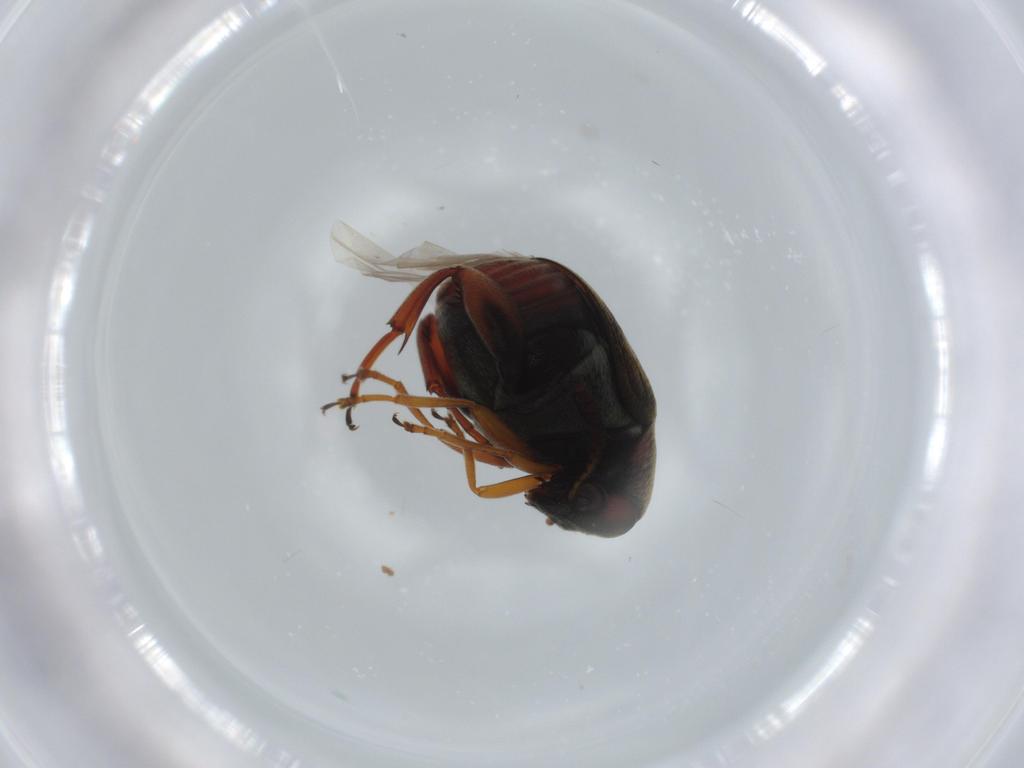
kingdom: Animalia
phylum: Arthropoda
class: Insecta
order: Coleoptera
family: Chrysomelidae
